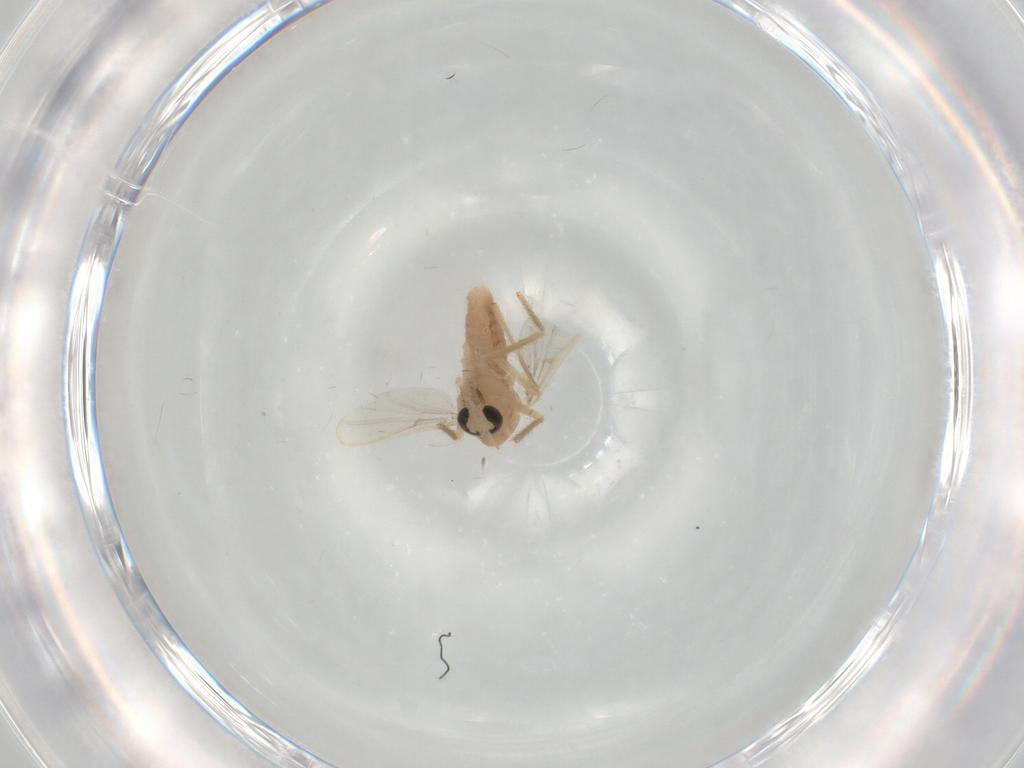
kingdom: Animalia
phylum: Arthropoda
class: Insecta
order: Diptera
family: Chironomidae
